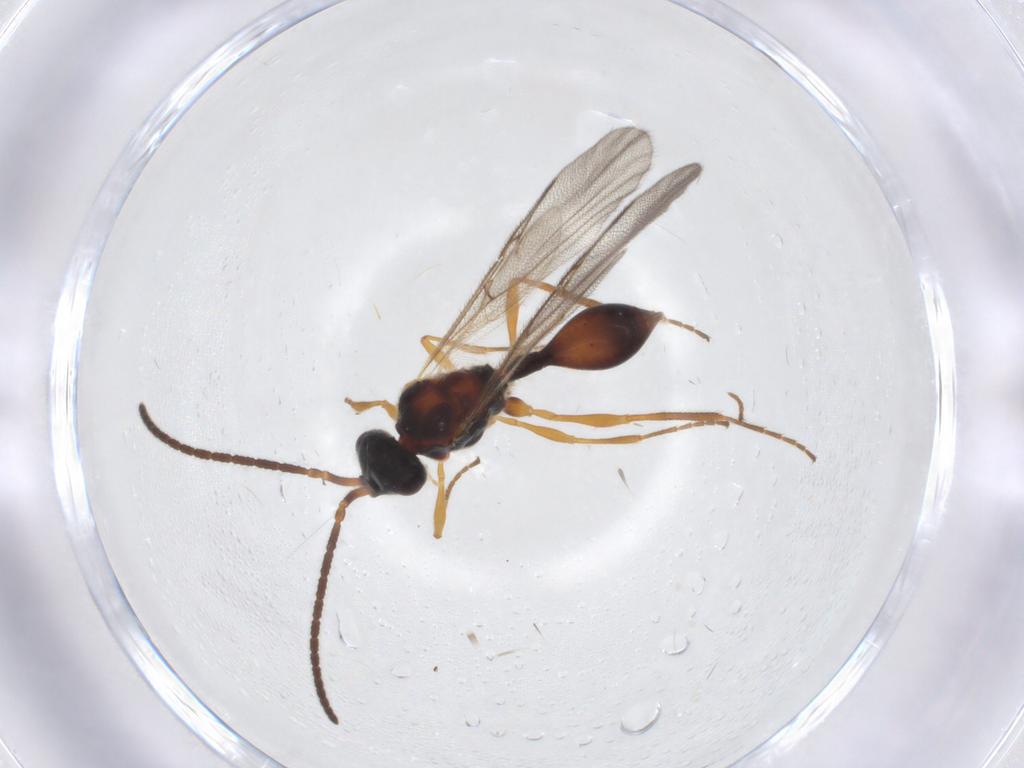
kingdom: Animalia
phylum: Arthropoda
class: Insecta
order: Hymenoptera
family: Diapriidae
